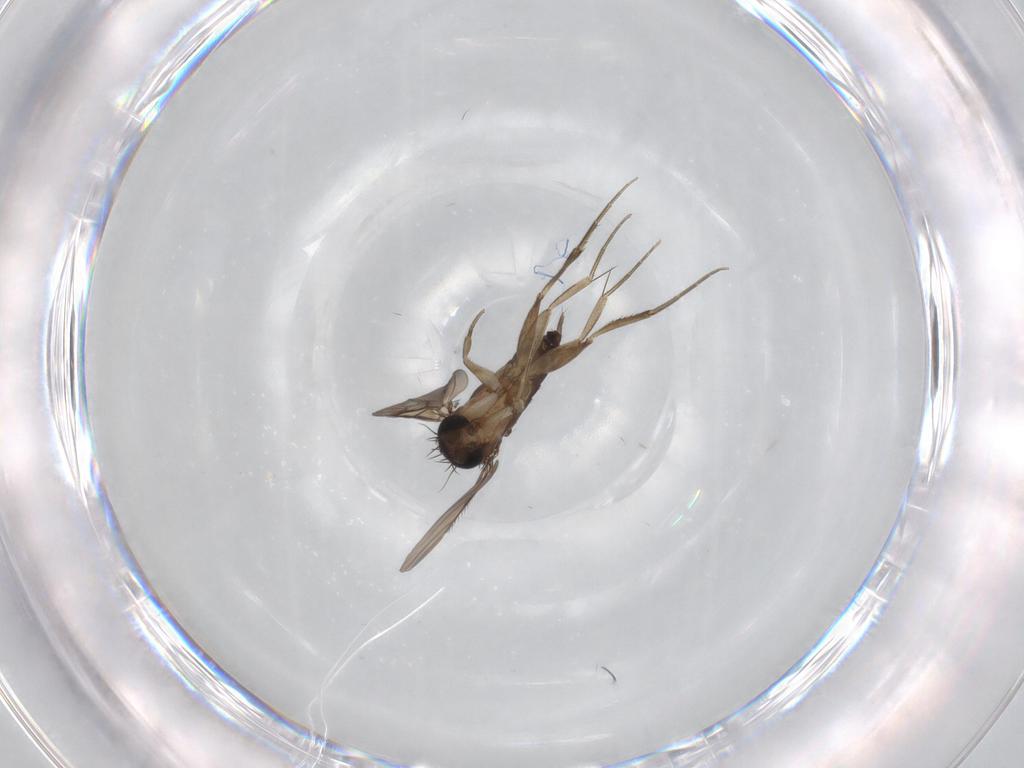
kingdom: Animalia
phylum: Arthropoda
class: Insecta
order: Diptera
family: Chironomidae
